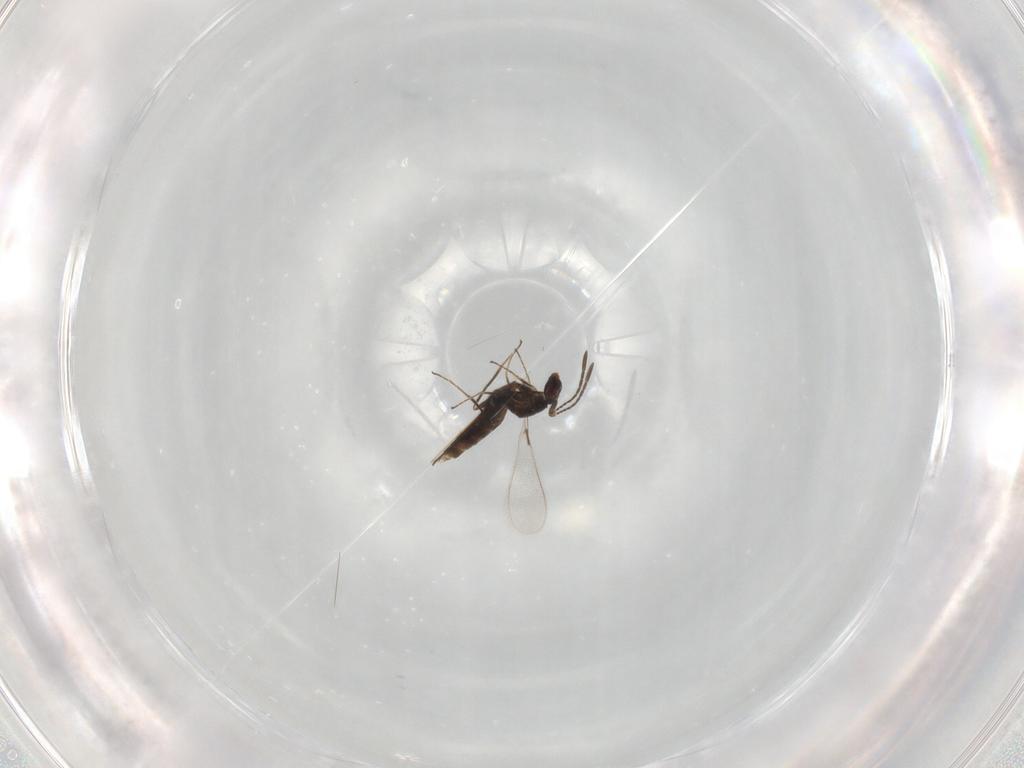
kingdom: Animalia
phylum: Arthropoda
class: Insecta
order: Hymenoptera
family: Mymaridae
